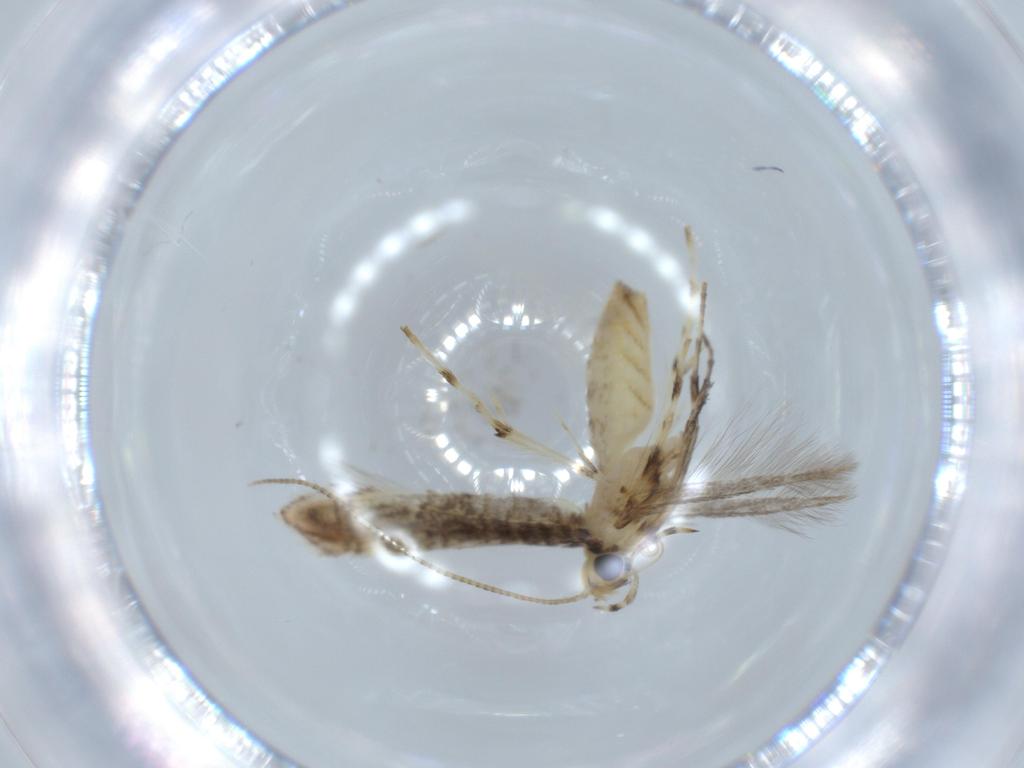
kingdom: Animalia
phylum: Arthropoda
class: Insecta
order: Lepidoptera
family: Gracillariidae
